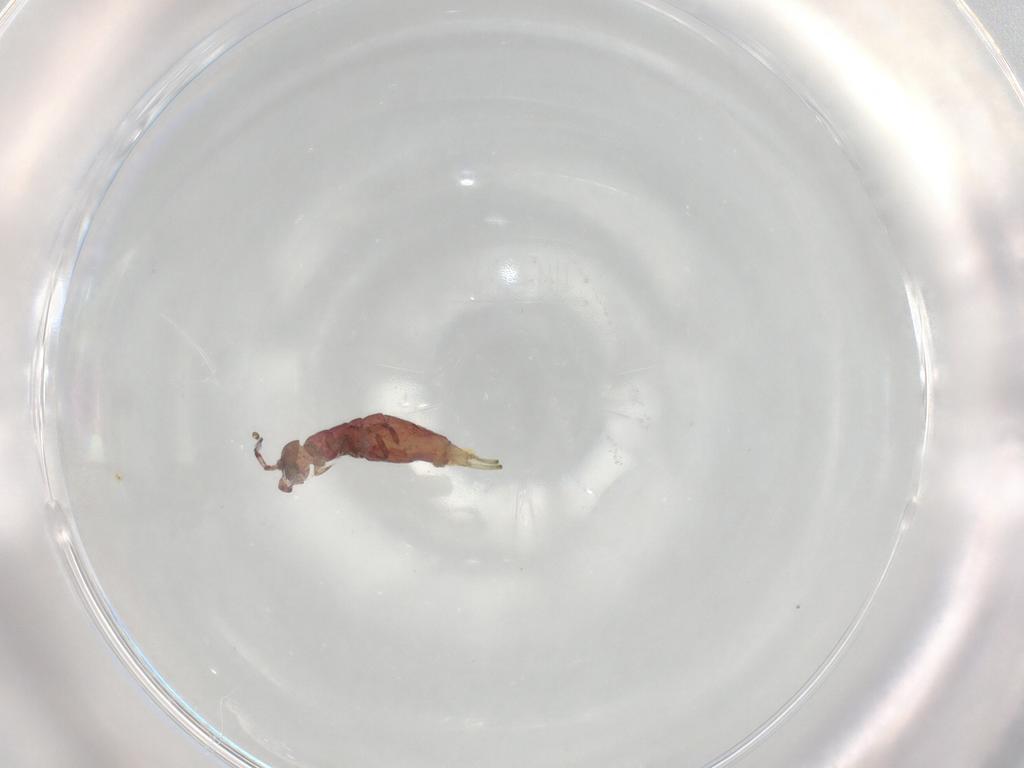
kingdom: Animalia
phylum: Arthropoda
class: Collembola
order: Entomobryomorpha
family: Isotomidae
